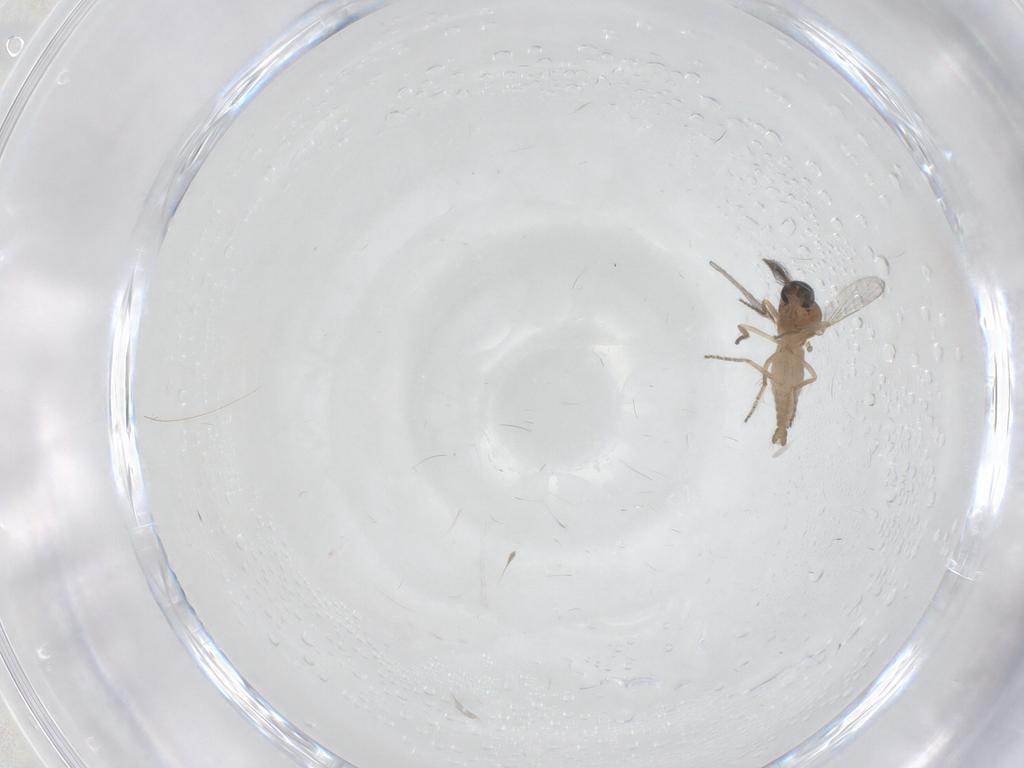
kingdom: Animalia
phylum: Arthropoda
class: Insecta
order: Diptera
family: Ceratopogonidae
